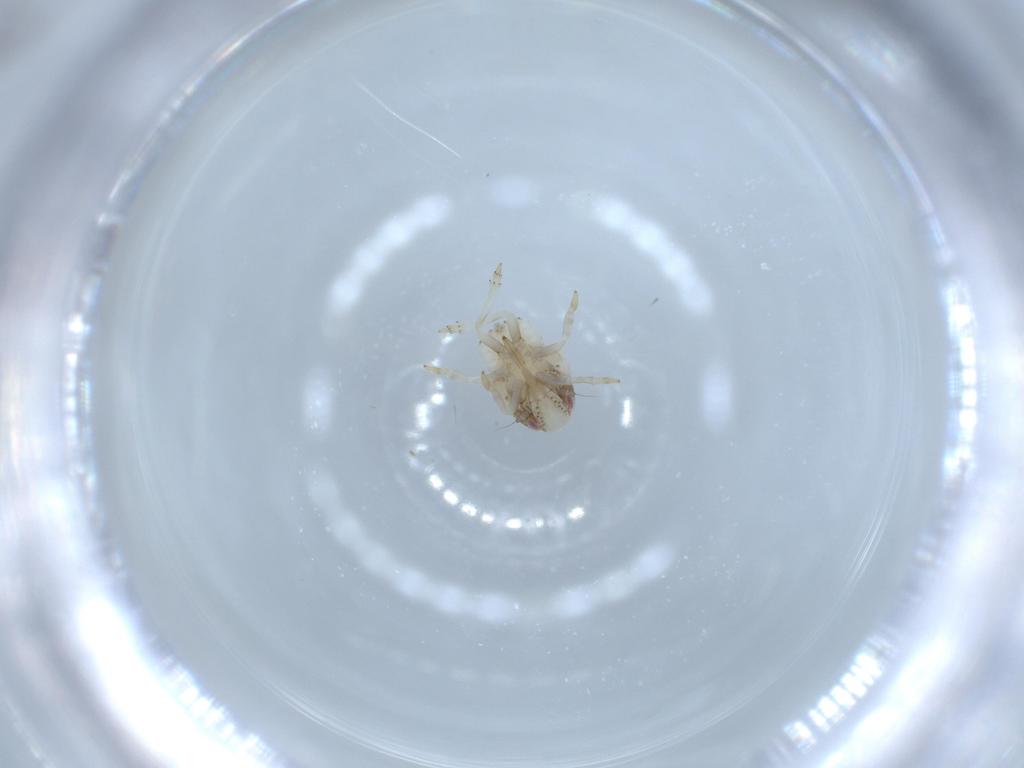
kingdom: Animalia
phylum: Arthropoda
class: Insecta
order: Hemiptera
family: Acanaloniidae
